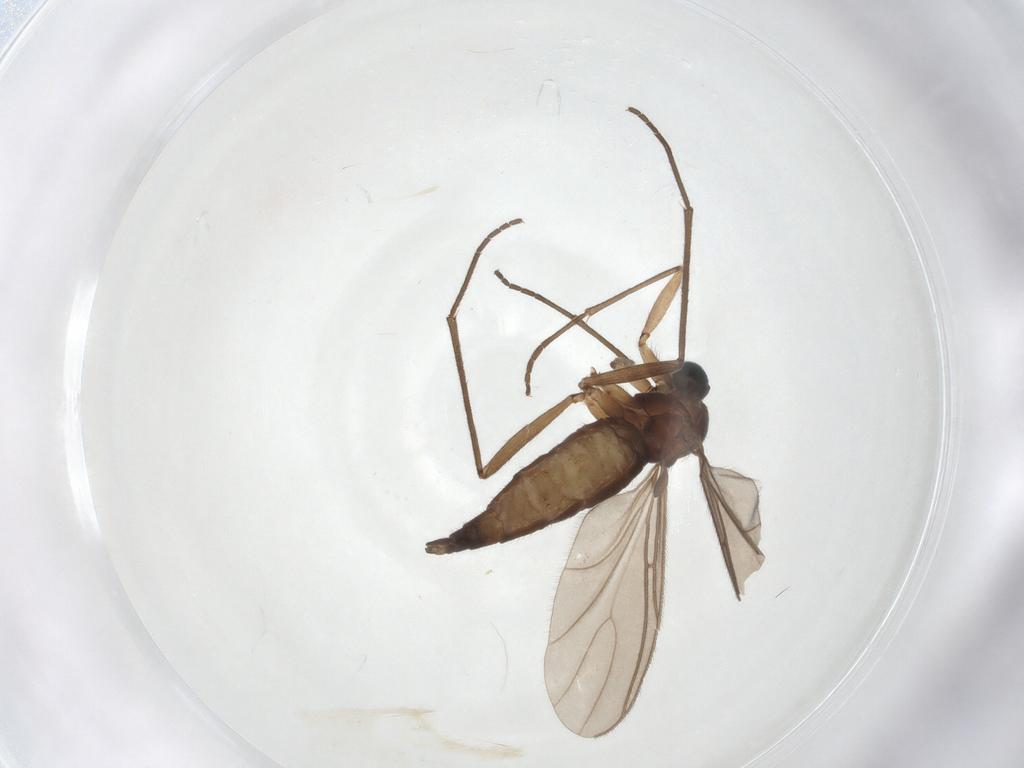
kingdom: Animalia
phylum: Arthropoda
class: Insecta
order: Diptera
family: Sciaridae
